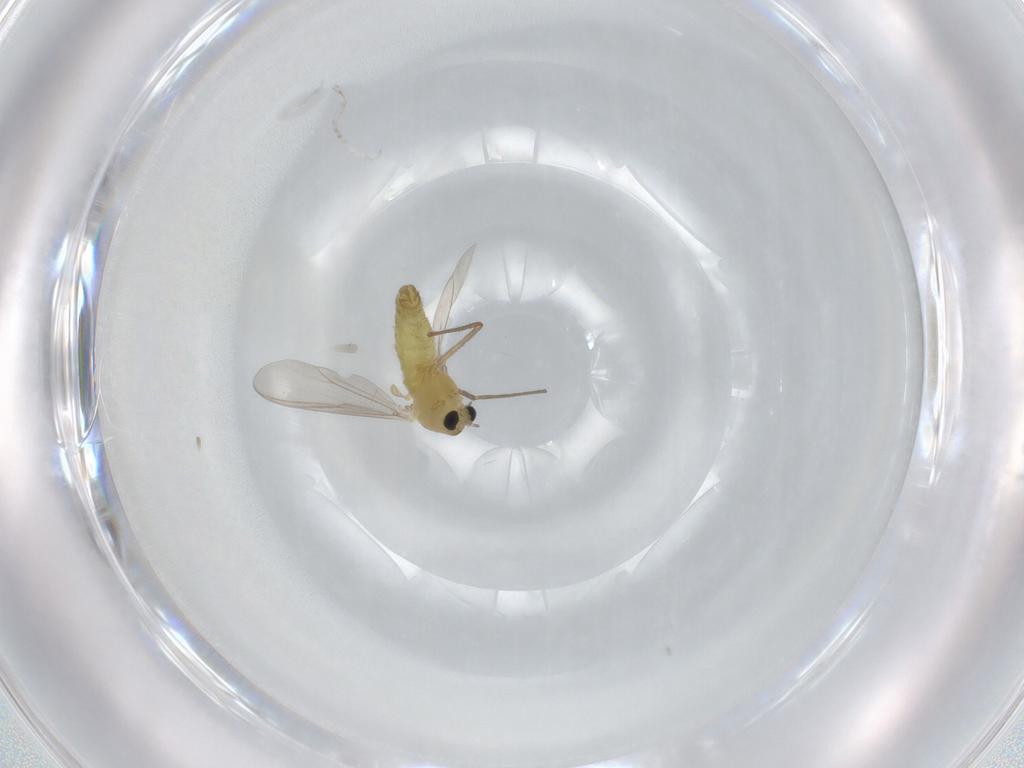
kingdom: Animalia
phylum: Arthropoda
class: Insecta
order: Diptera
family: Chironomidae
